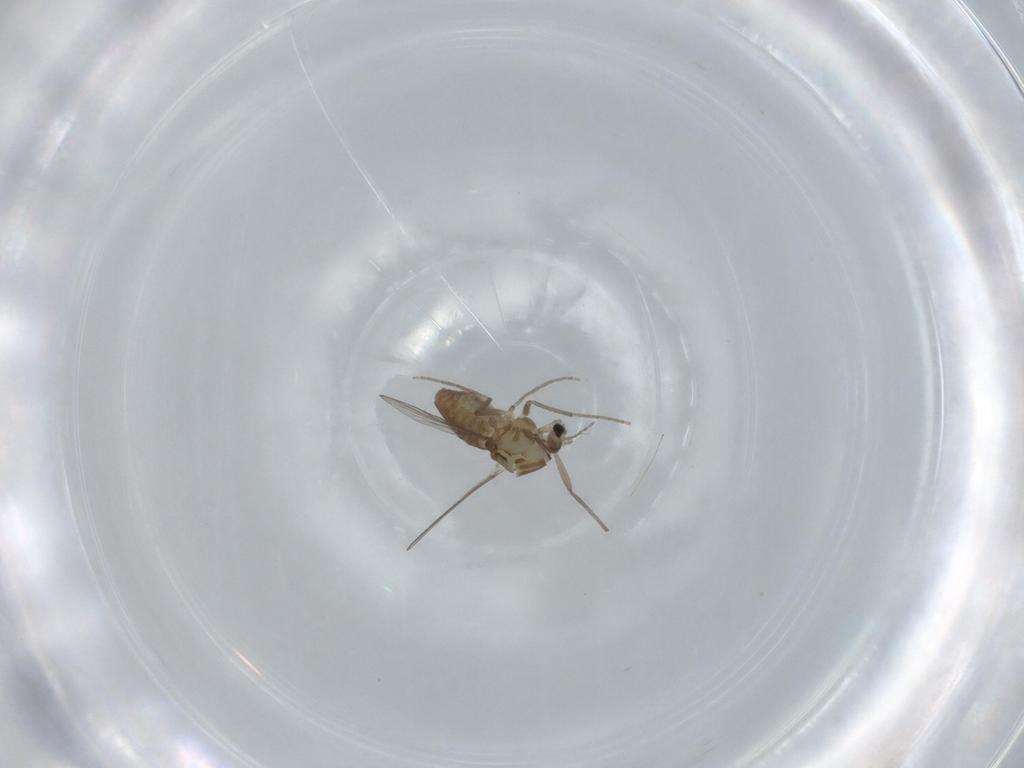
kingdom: Animalia
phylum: Arthropoda
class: Insecta
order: Diptera
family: Chironomidae
